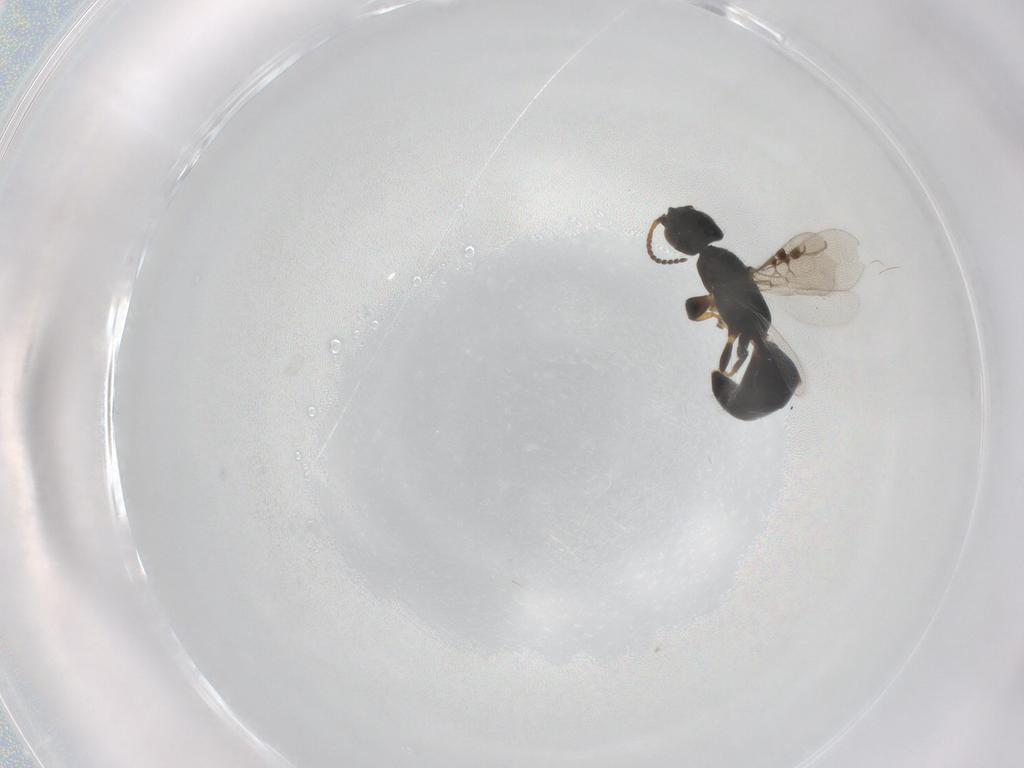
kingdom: Animalia
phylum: Arthropoda
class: Insecta
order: Hymenoptera
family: Bethylidae
